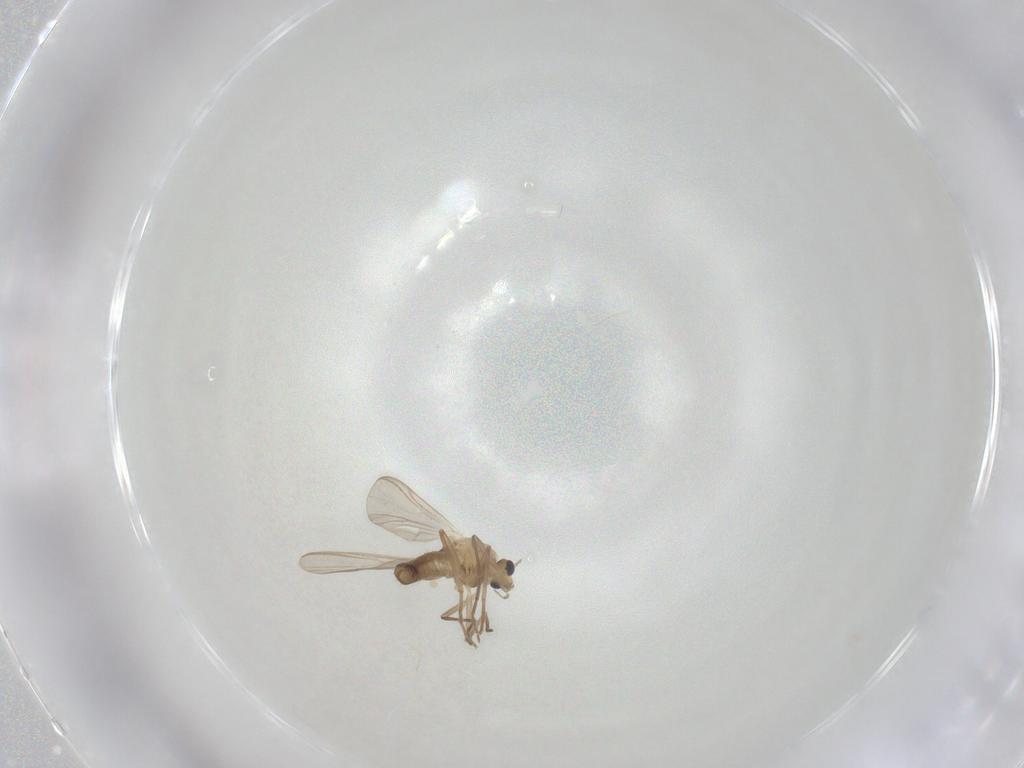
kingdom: Animalia
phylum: Arthropoda
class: Insecta
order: Diptera
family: Chironomidae
